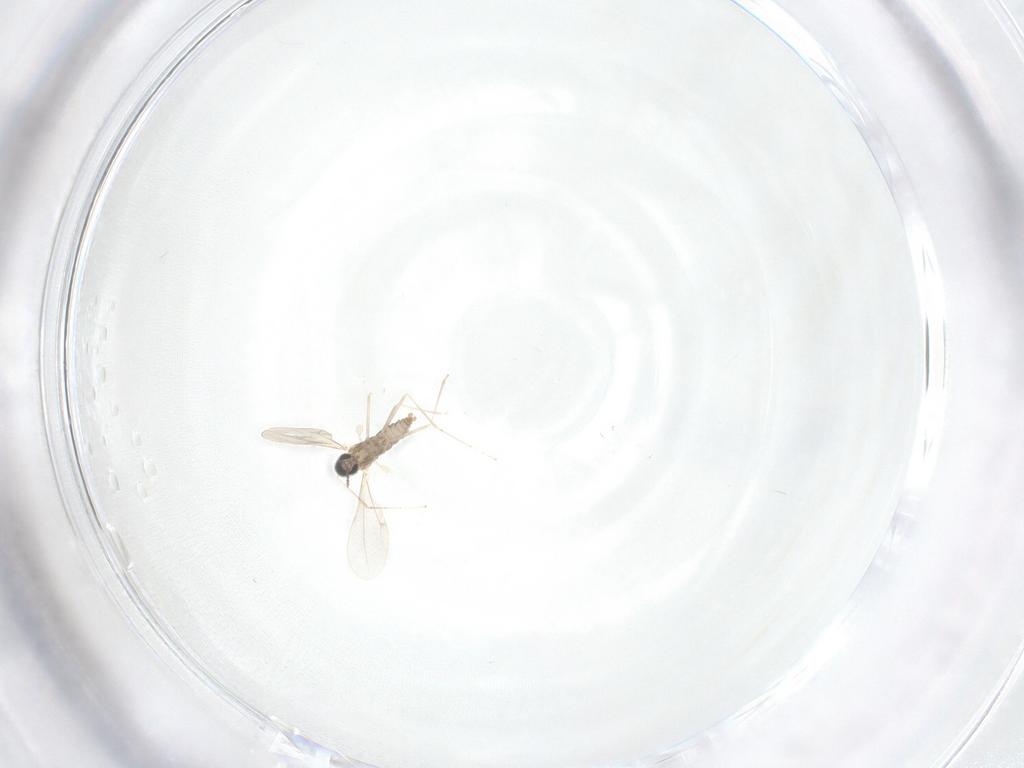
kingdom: Animalia
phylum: Arthropoda
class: Insecta
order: Diptera
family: Cecidomyiidae
